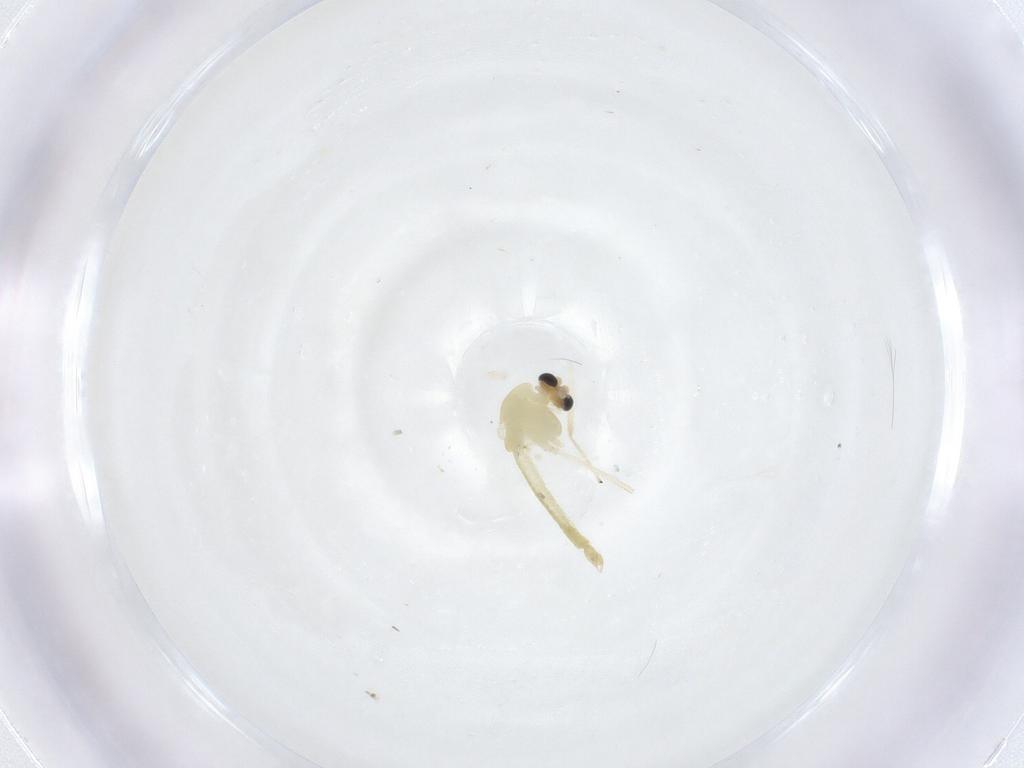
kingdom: Animalia
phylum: Arthropoda
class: Insecta
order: Diptera
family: Chironomidae
